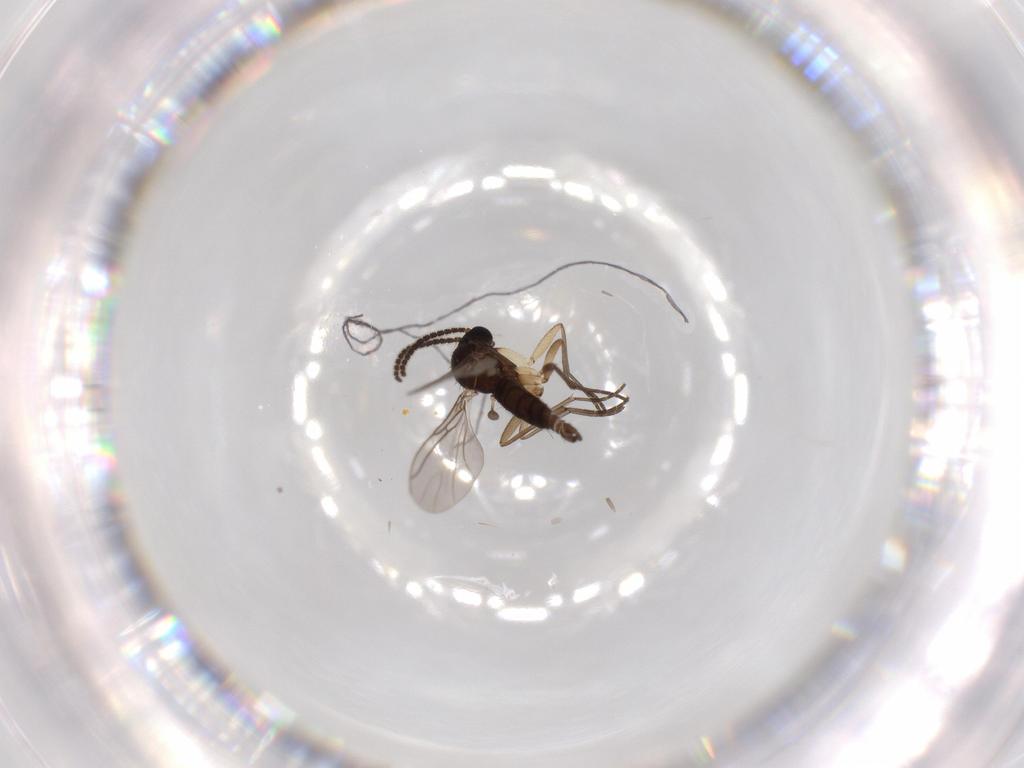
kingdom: Animalia
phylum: Arthropoda
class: Insecta
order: Diptera
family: Sciaridae
